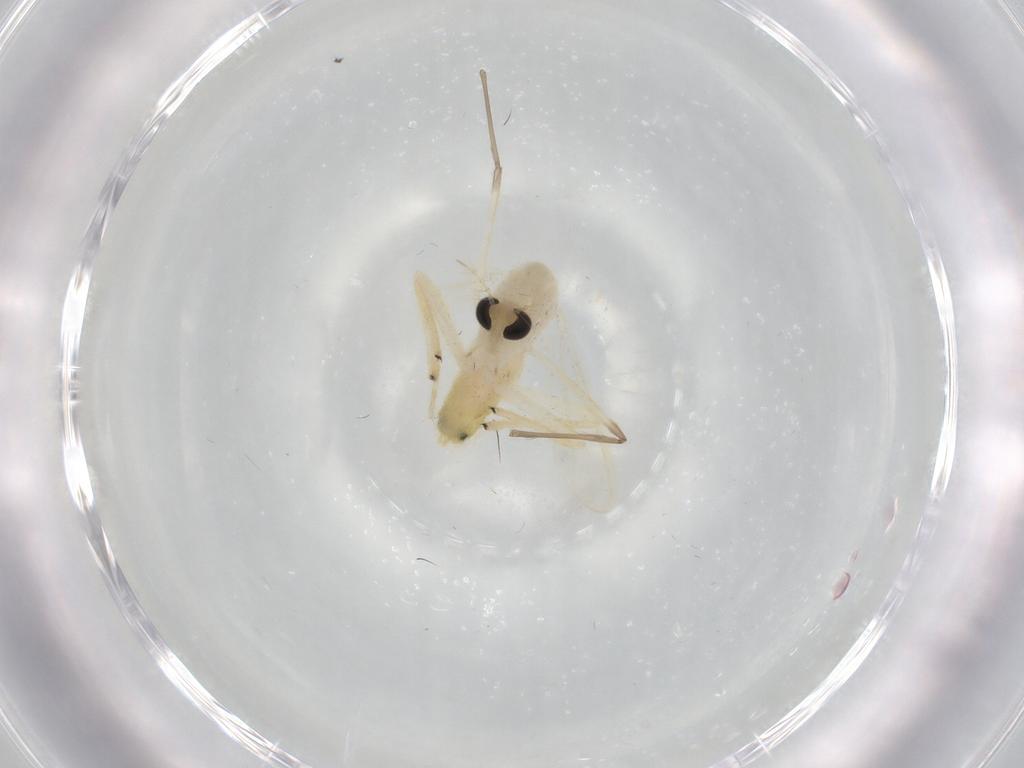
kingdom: Animalia
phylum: Arthropoda
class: Insecta
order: Diptera
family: Chironomidae
